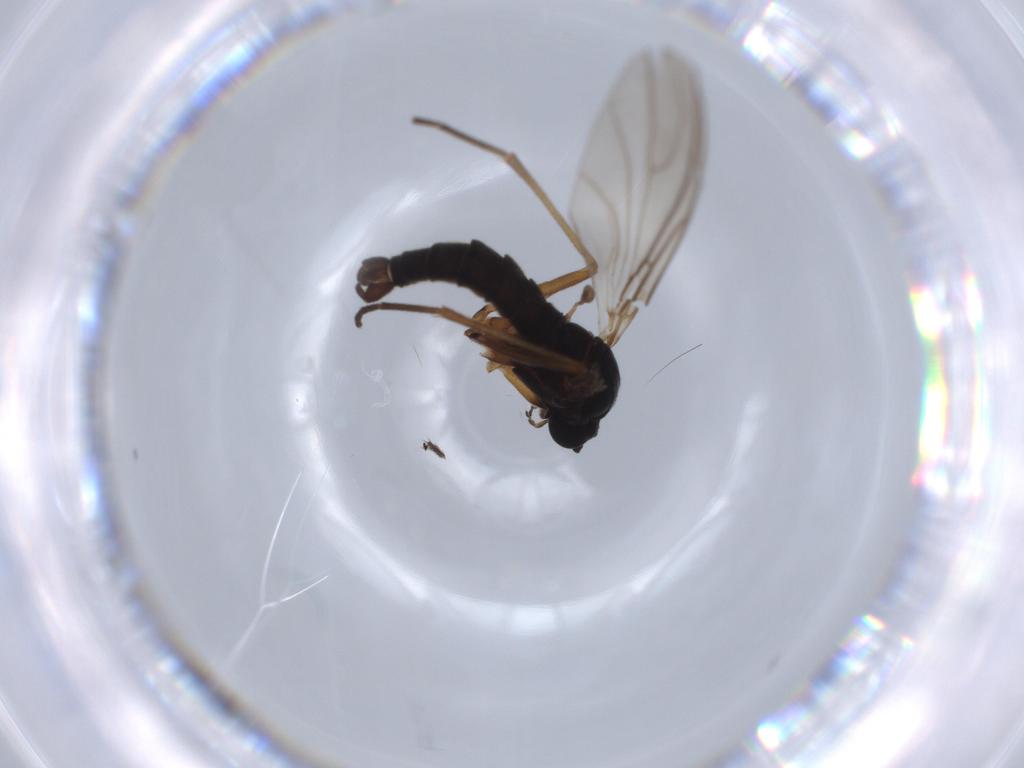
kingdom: Animalia
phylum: Arthropoda
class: Insecta
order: Diptera
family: Sciaridae
